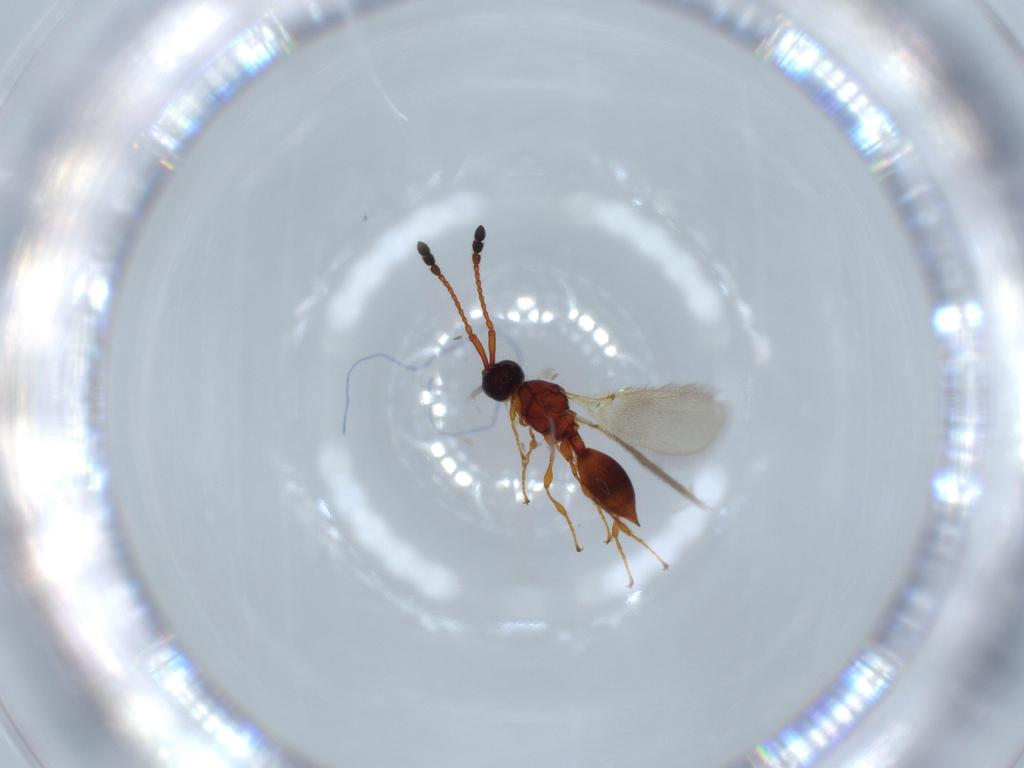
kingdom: Animalia
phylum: Arthropoda
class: Insecta
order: Hymenoptera
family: Diapriidae
